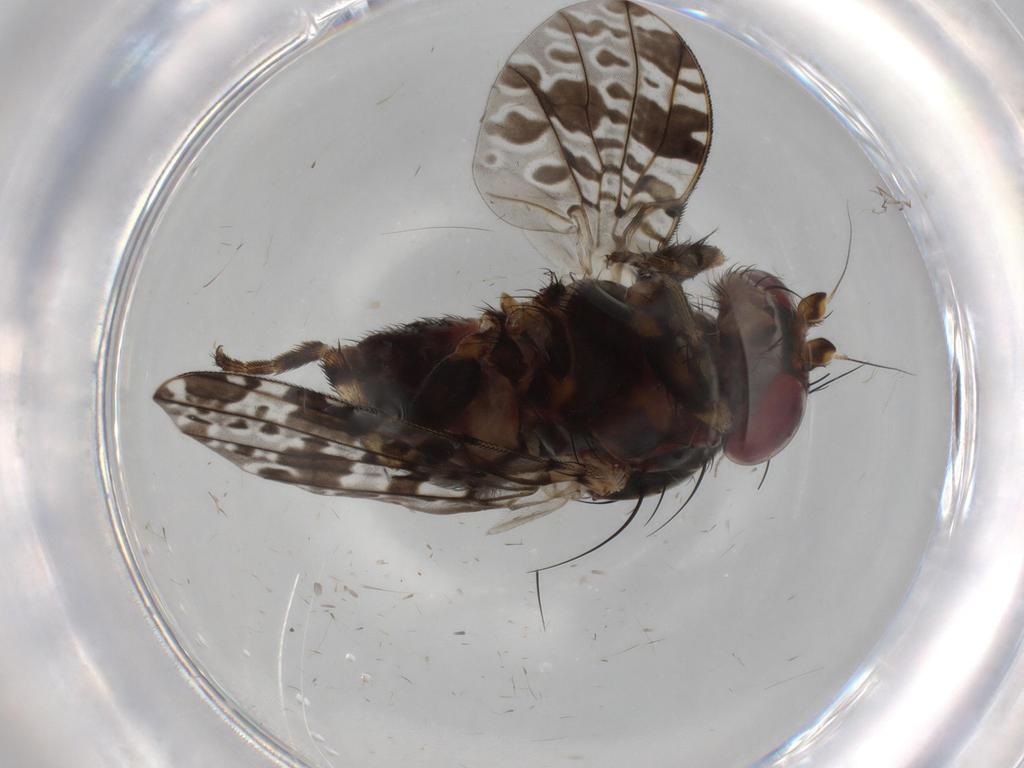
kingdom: Animalia
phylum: Arthropoda
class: Insecta
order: Diptera
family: Odiniidae
